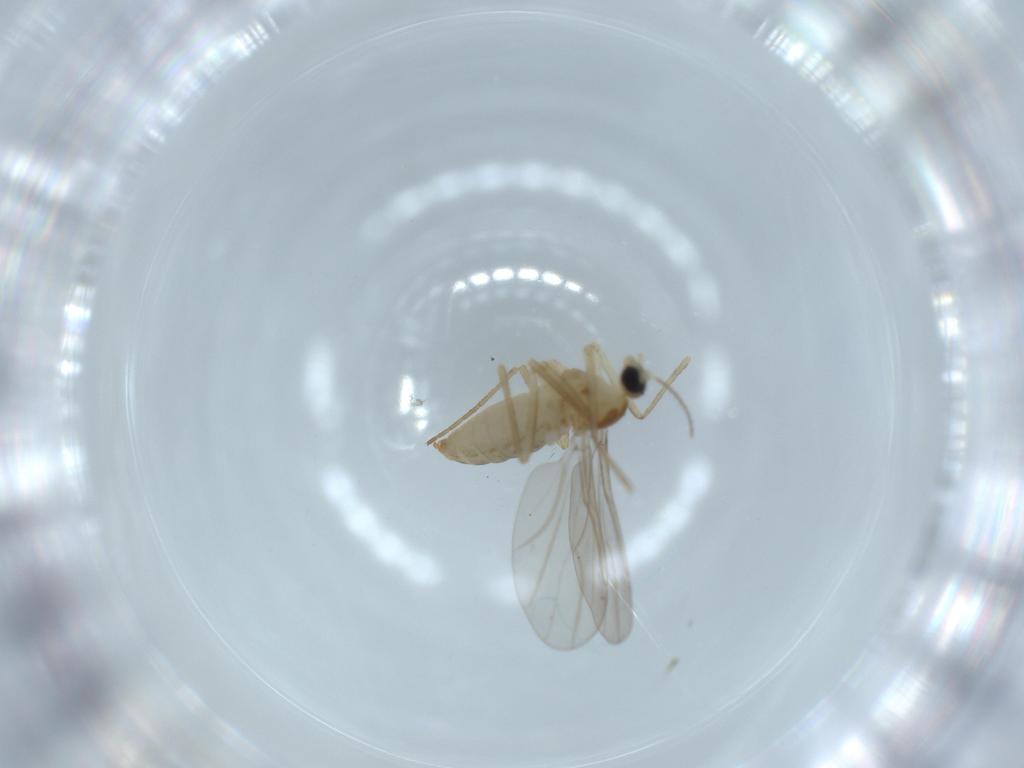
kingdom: Animalia
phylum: Arthropoda
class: Insecta
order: Diptera
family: Cecidomyiidae
